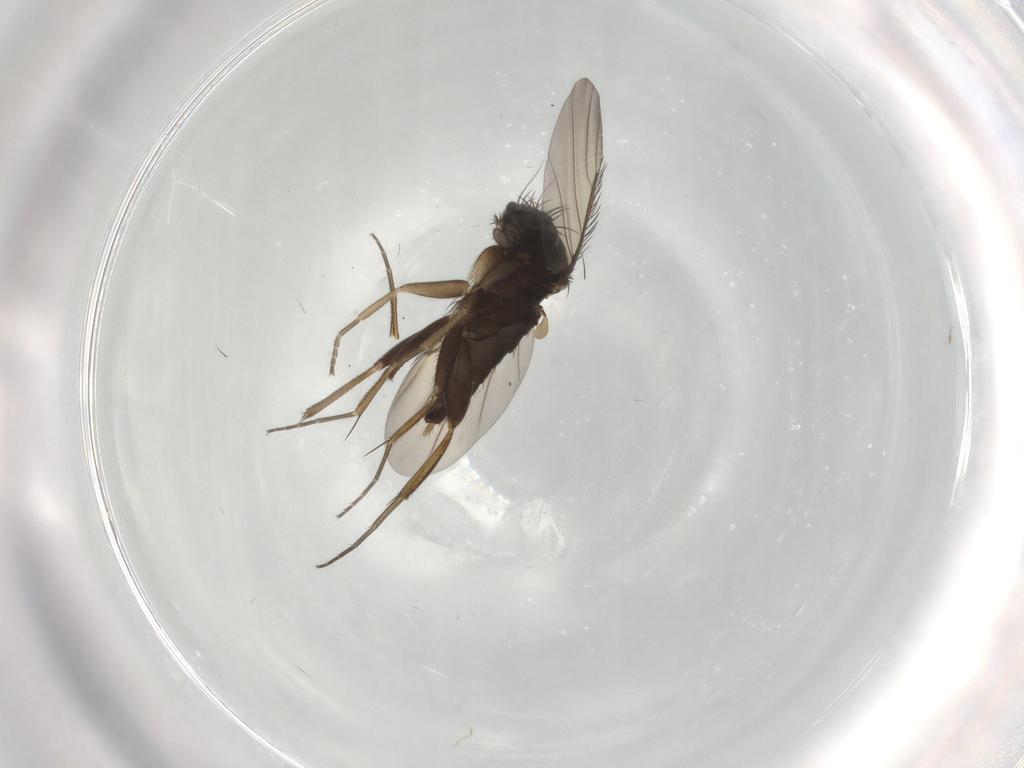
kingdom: Animalia
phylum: Arthropoda
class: Insecta
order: Diptera
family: Phoridae
